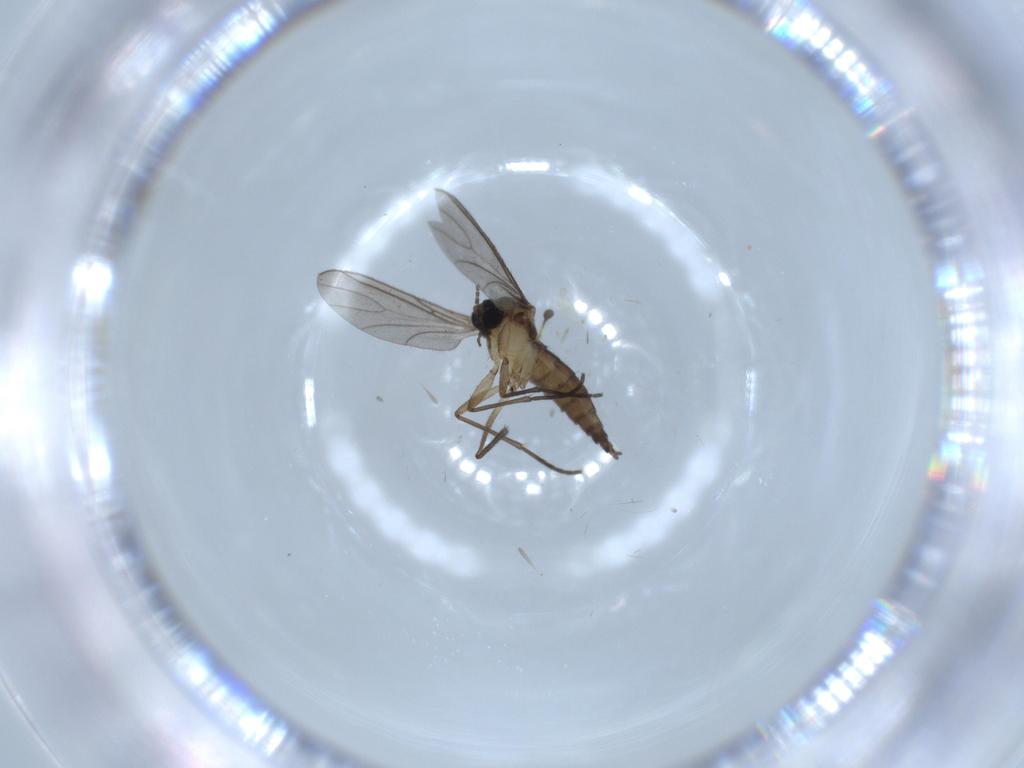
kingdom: Animalia
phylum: Arthropoda
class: Insecta
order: Diptera
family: Sciaridae
